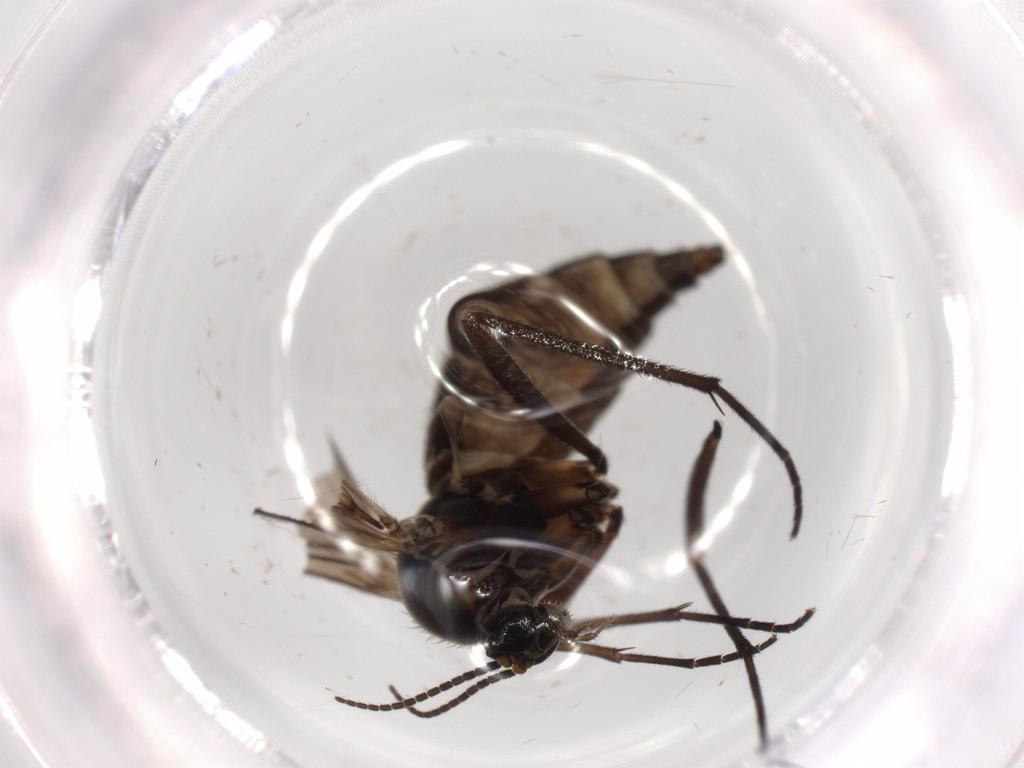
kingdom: Animalia
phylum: Arthropoda
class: Insecta
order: Diptera
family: Sciaridae
